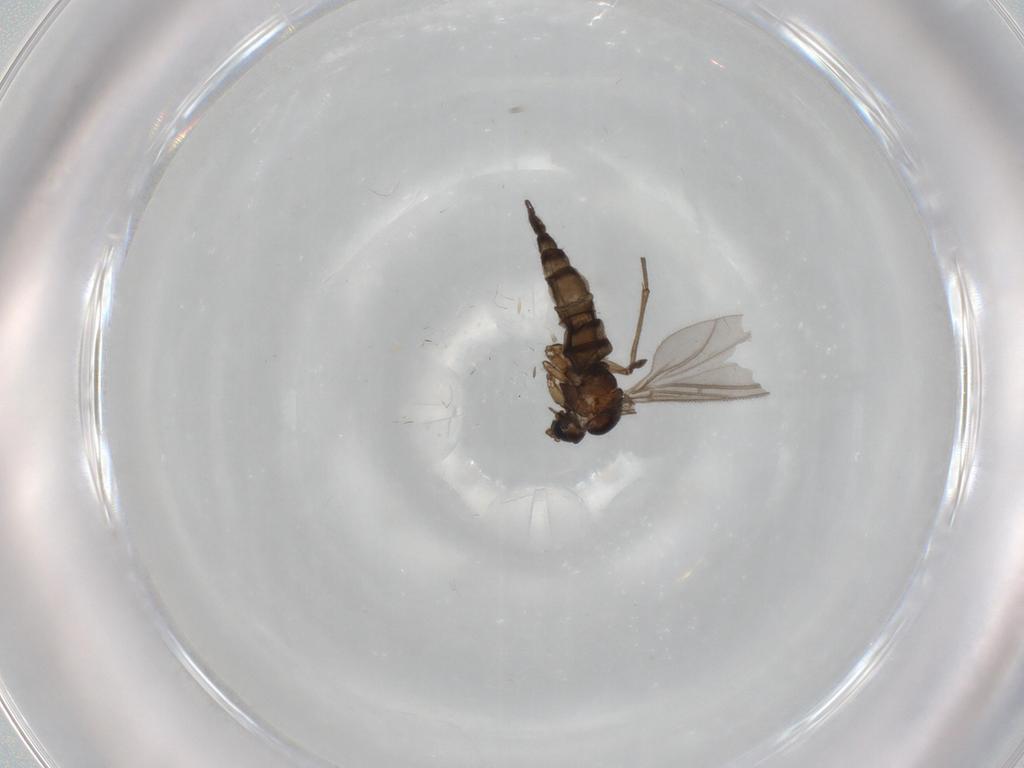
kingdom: Animalia
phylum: Arthropoda
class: Insecta
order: Diptera
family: Sciaridae
